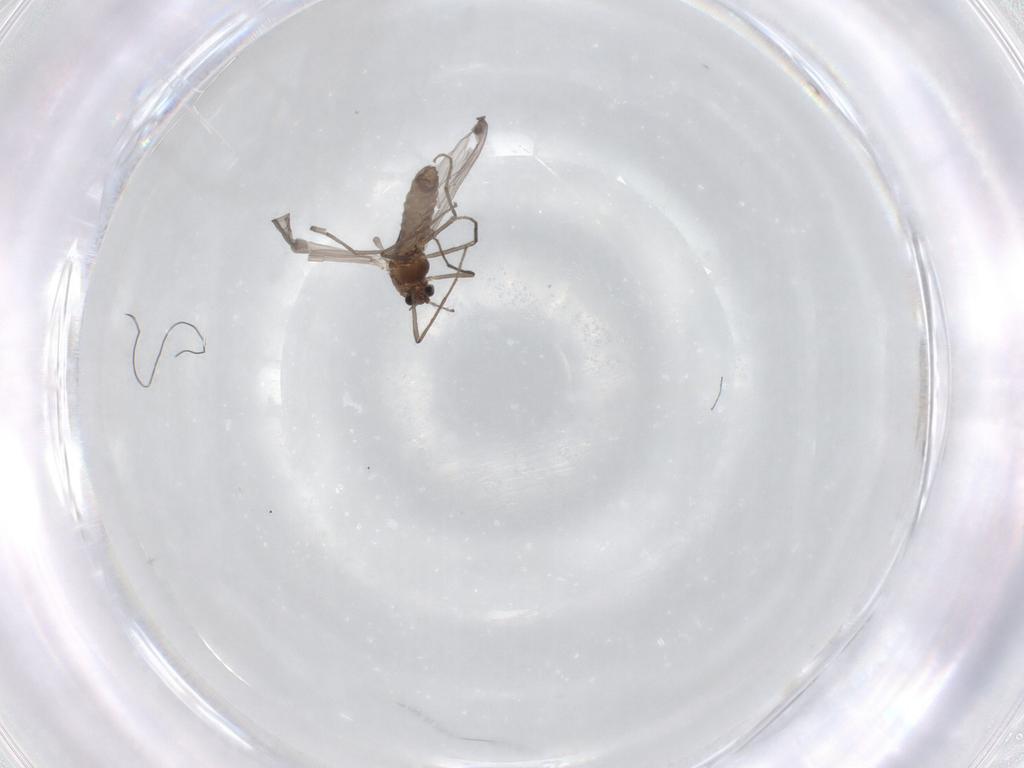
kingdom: Animalia
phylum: Arthropoda
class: Insecta
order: Diptera
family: Chironomidae
